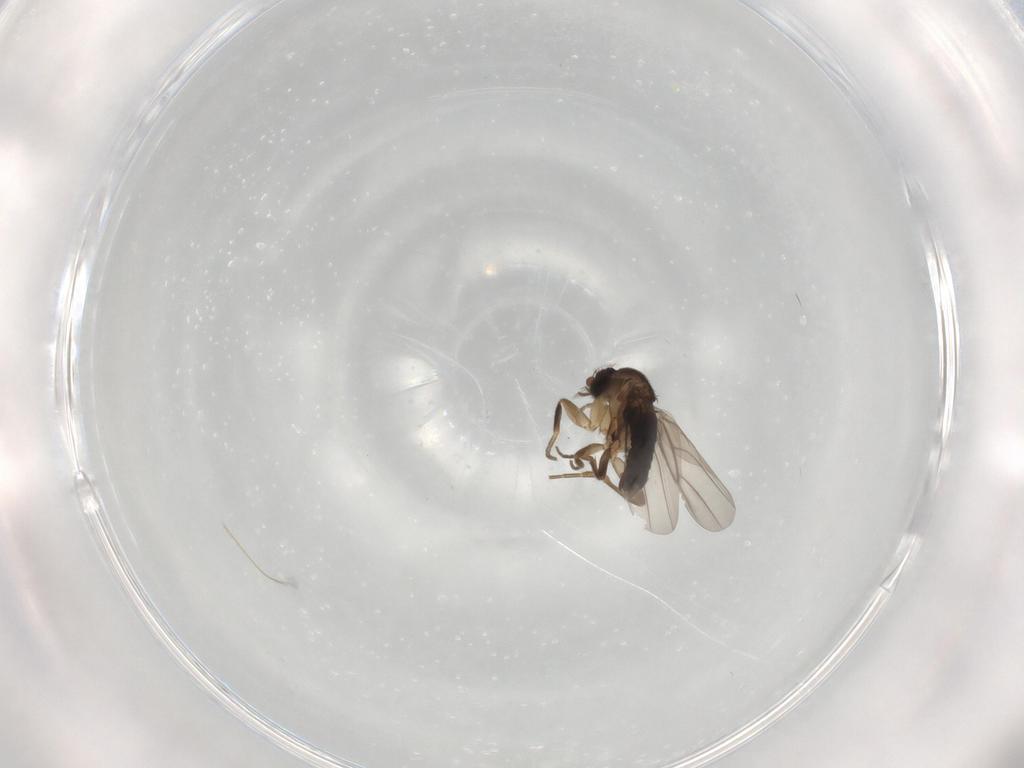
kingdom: Animalia
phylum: Arthropoda
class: Insecta
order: Diptera
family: Phoridae
